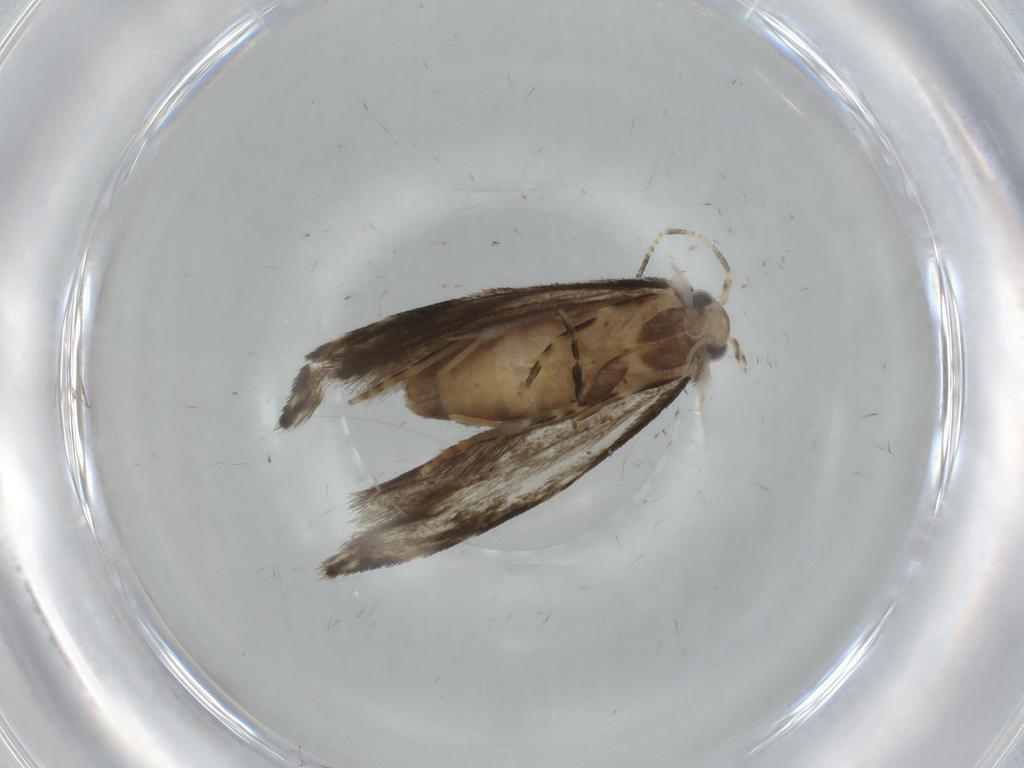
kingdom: Animalia
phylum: Arthropoda
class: Insecta
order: Lepidoptera
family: Tineidae
